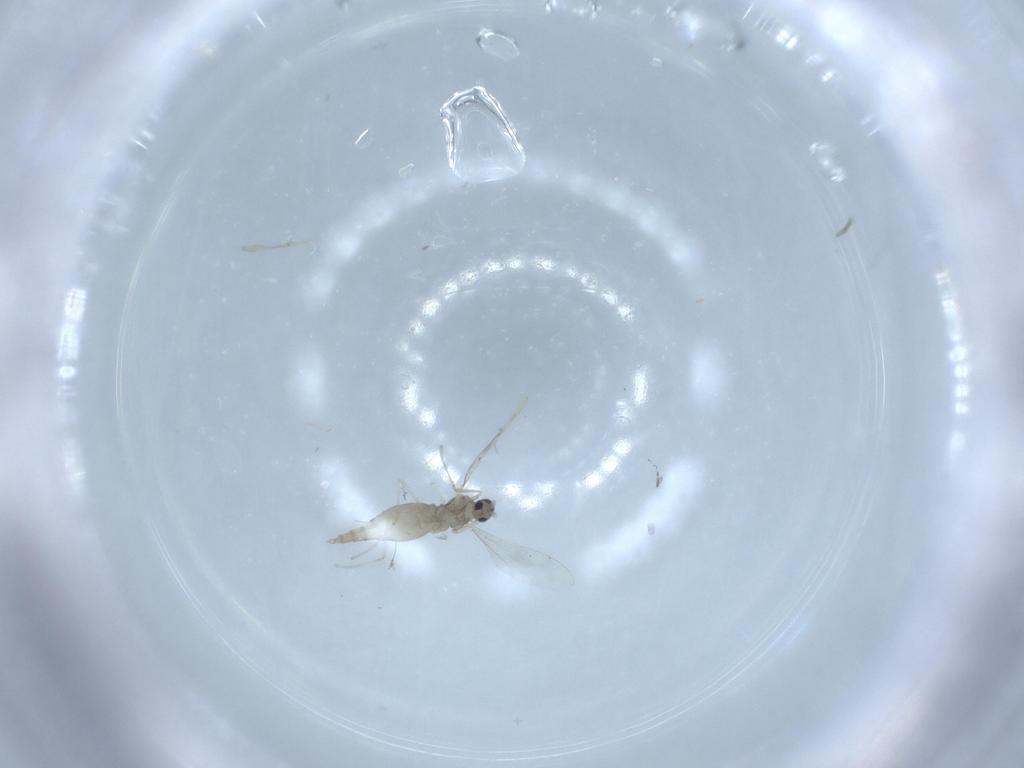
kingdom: Animalia
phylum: Arthropoda
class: Insecta
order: Diptera
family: Cecidomyiidae
